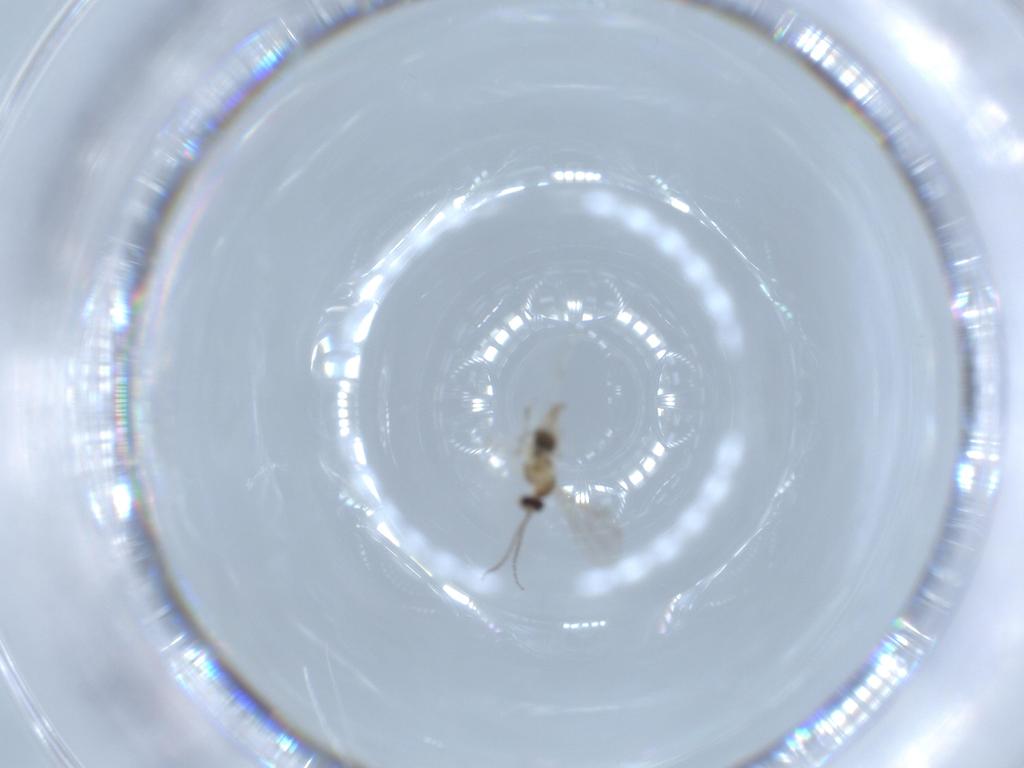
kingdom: Animalia
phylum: Arthropoda
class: Insecta
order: Diptera
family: Cecidomyiidae
